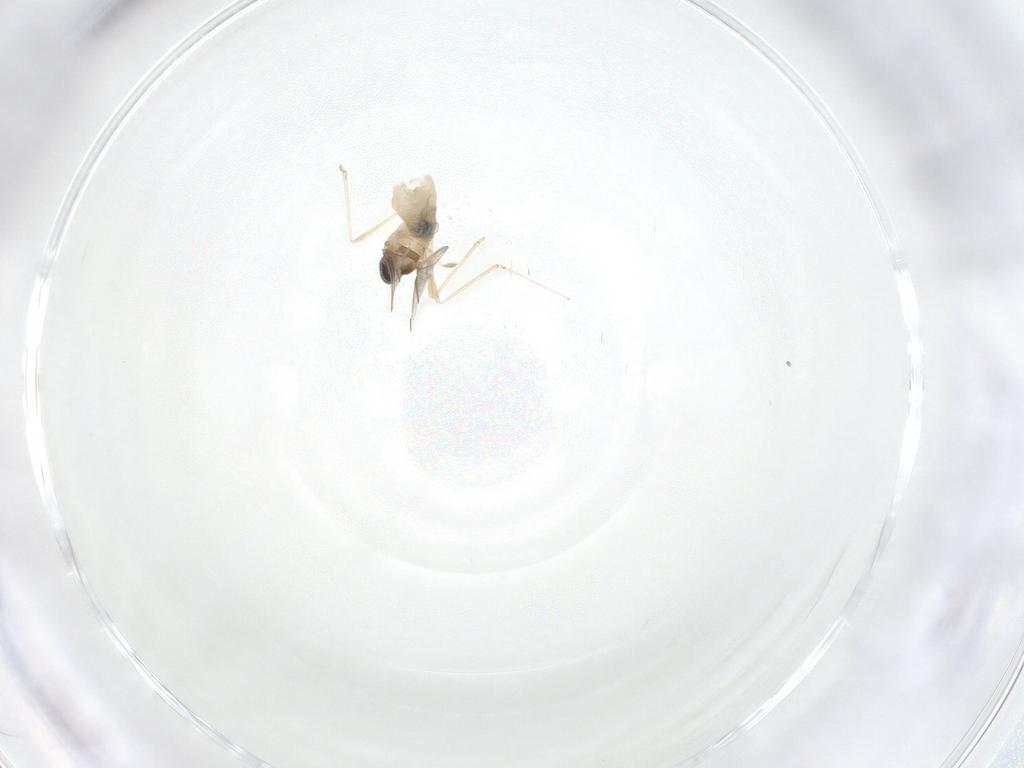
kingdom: Animalia
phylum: Arthropoda
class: Insecta
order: Diptera
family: Cecidomyiidae
